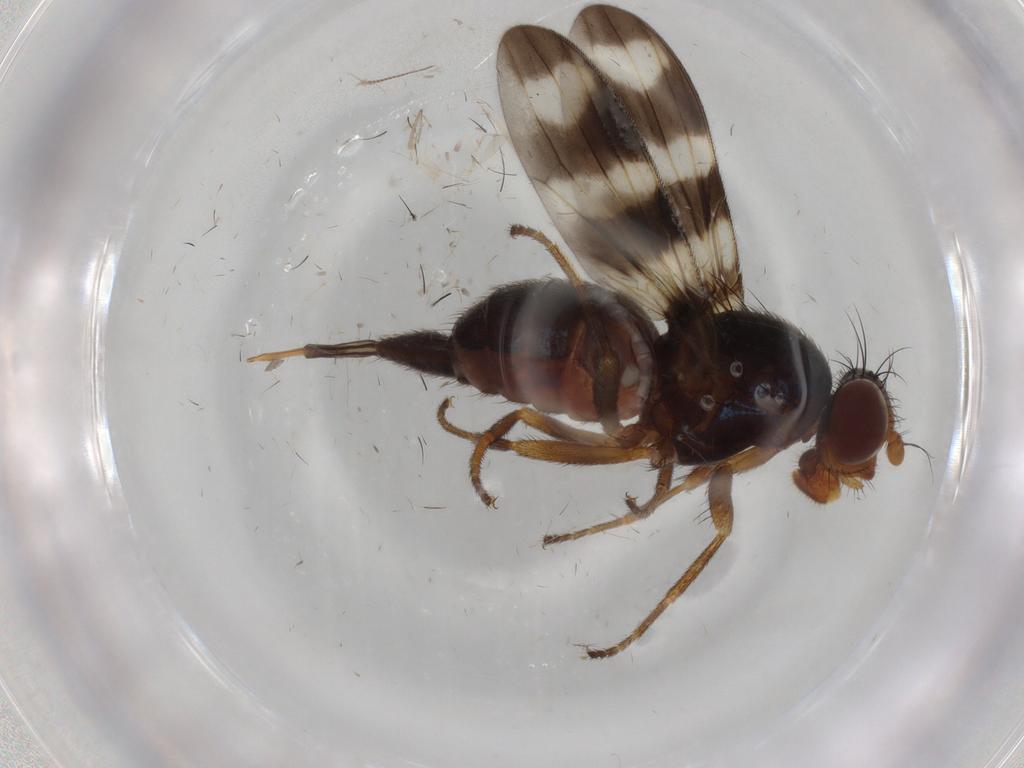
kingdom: Animalia
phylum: Arthropoda
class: Insecta
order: Diptera
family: Ulidiidae
